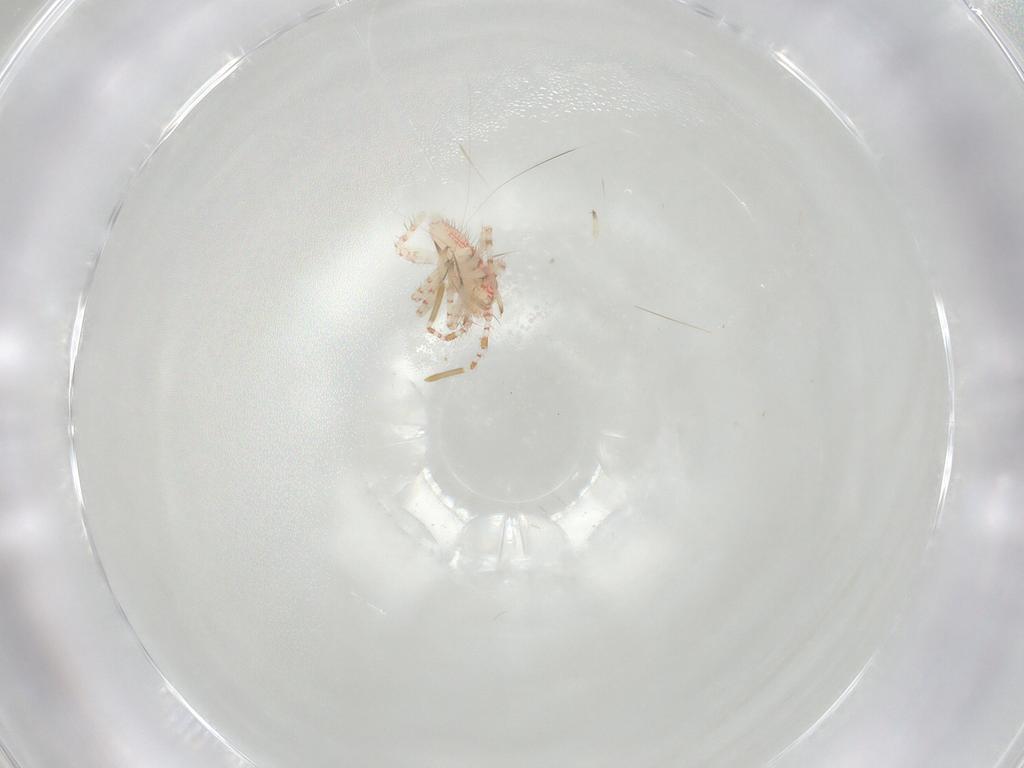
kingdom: Animalia
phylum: Arthropoda
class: Insecta
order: Hemiptera
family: Miridae
